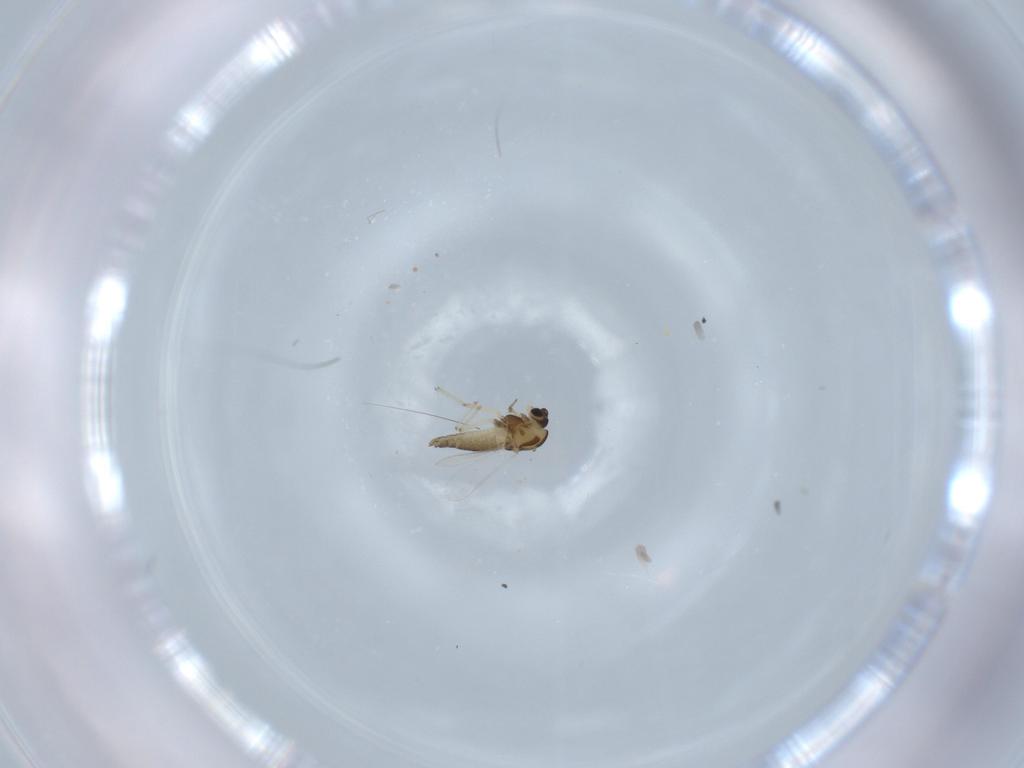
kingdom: Animalia
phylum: Arthropoda
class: Insecta
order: Diptera
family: Chironomidae
